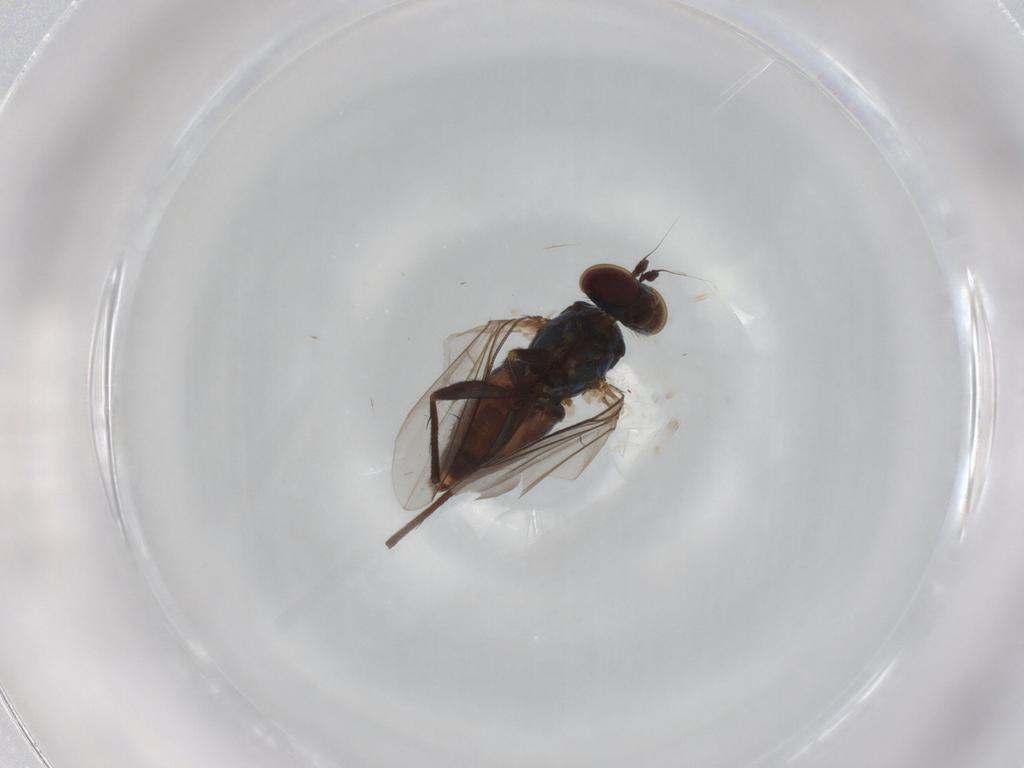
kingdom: Animalia
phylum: Arthropoda
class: Insecta
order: Diptera
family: Dolichopodidae
